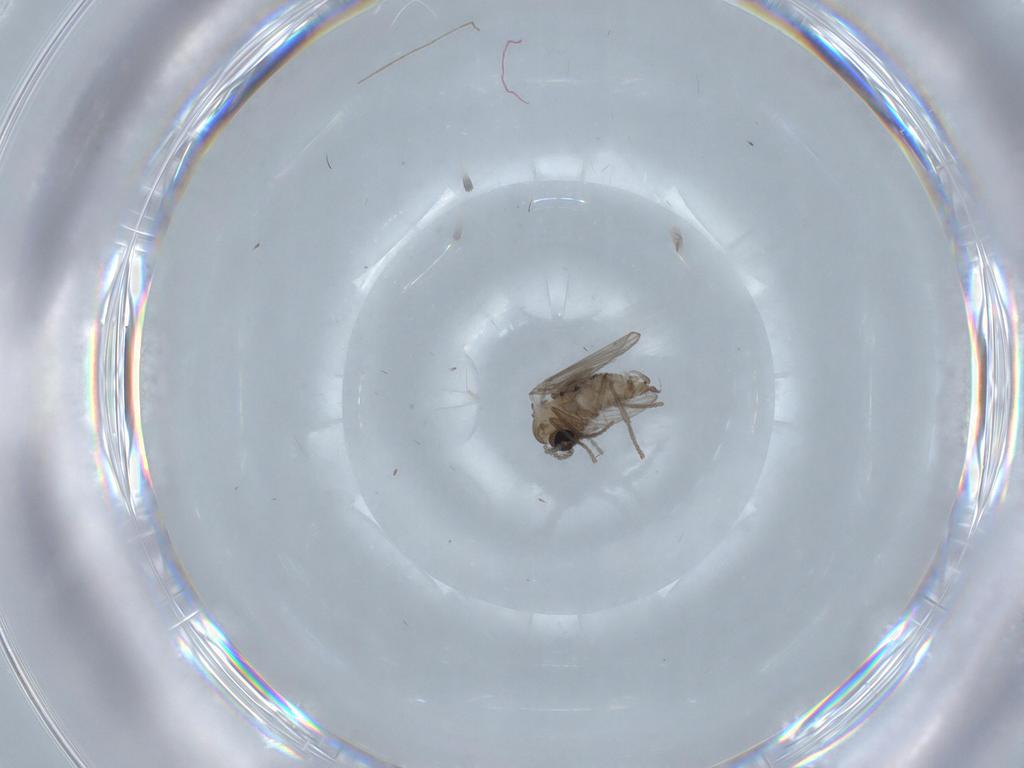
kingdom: Animalia
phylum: Arthropoda
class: Insecta
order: Diptera
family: Psychodidae
